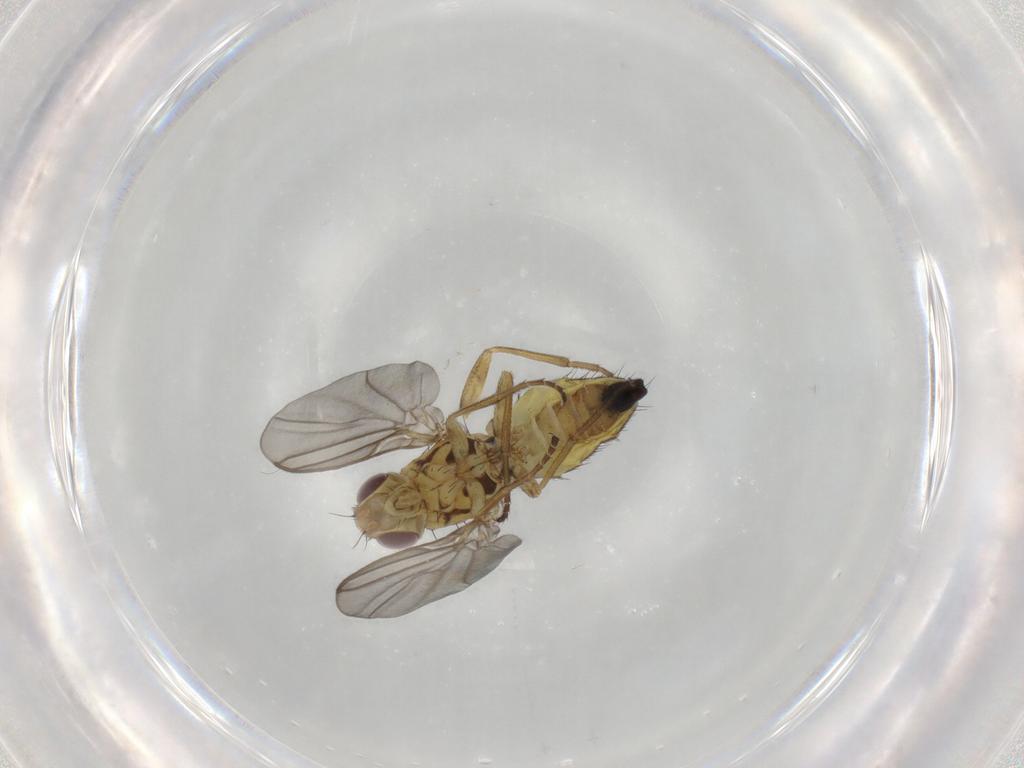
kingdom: Animalia
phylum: Arthropoda
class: Insecta
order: Diptera
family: Agromyzidae
